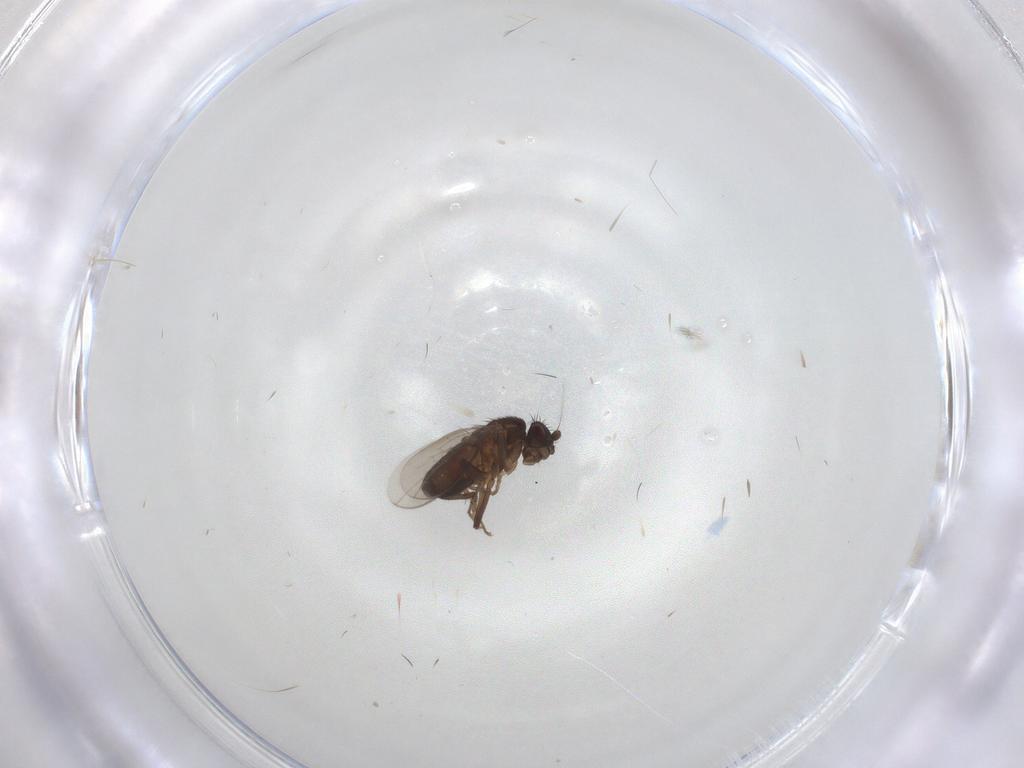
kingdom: Animalia
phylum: Arthropoda
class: Insecta
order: Diptera
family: Sphaeroceridae
